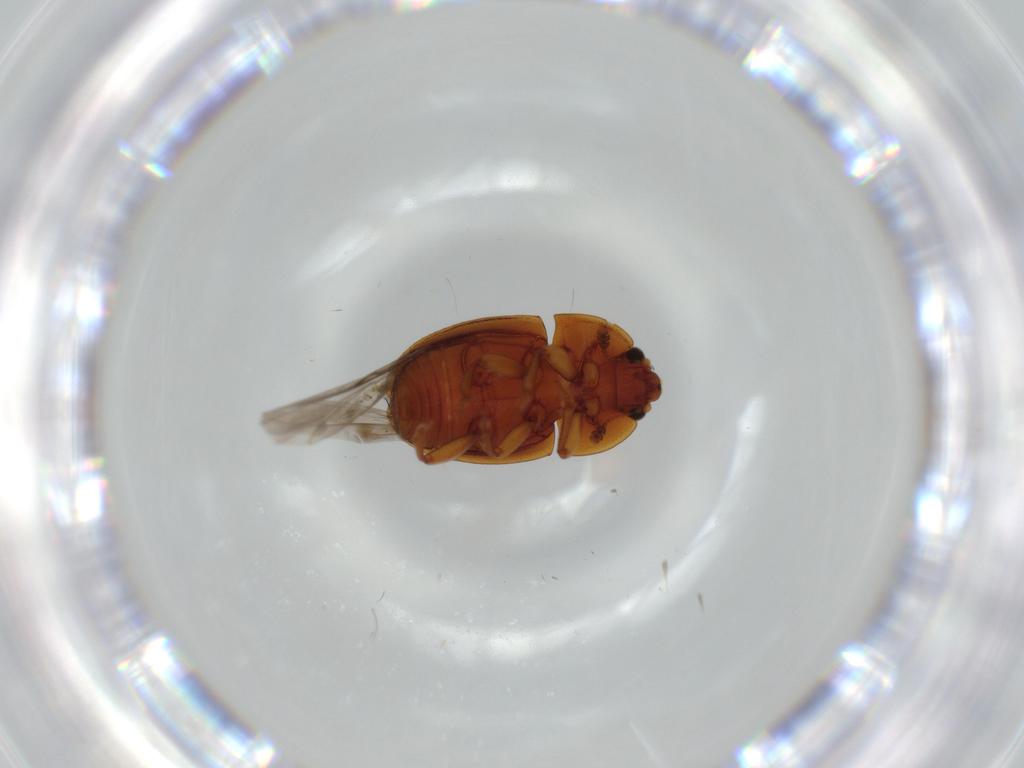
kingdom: Animalia
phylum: Arthropoda
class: Insecta
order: Coleoptera
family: Scraptiidae
